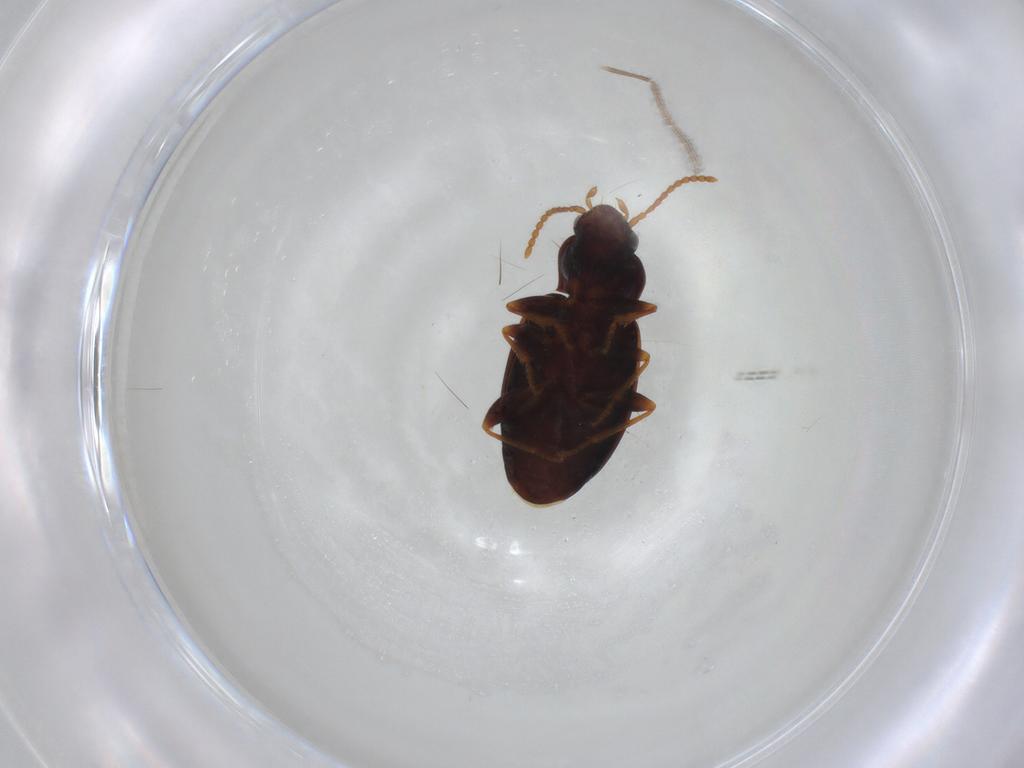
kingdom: Animalia
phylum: Arthropoda
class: Insecta
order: Coleoptera
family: Carabidae
